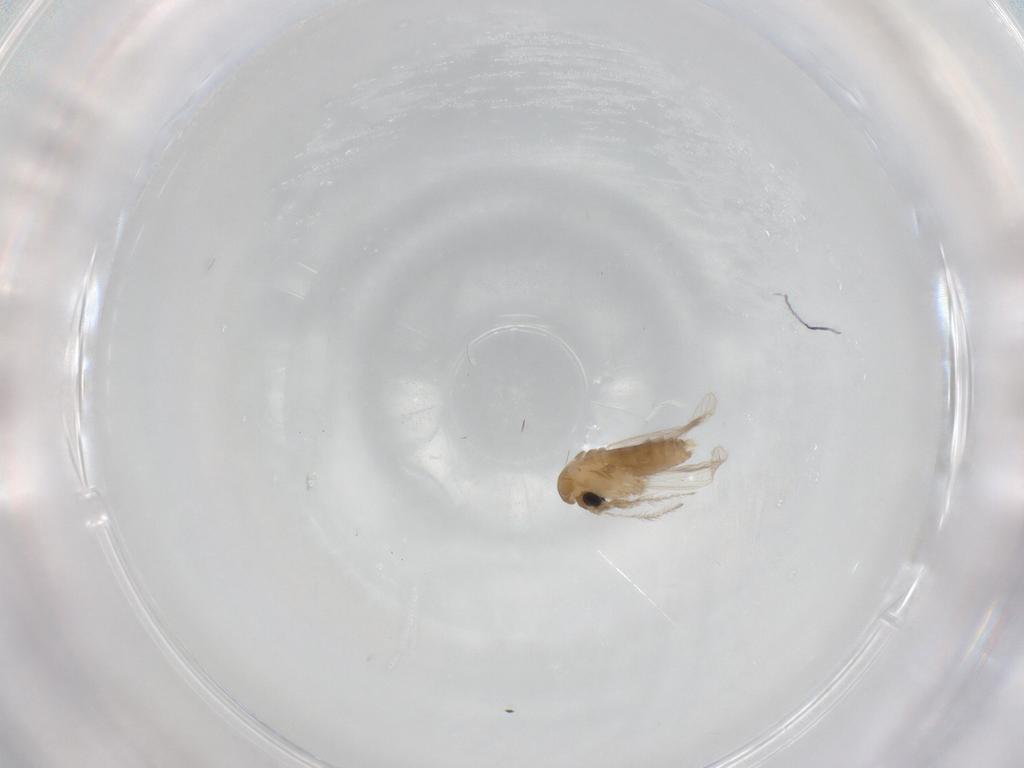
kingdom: Animalia
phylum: Arthropoda
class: Insecta
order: Diptera
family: Psychodidae
